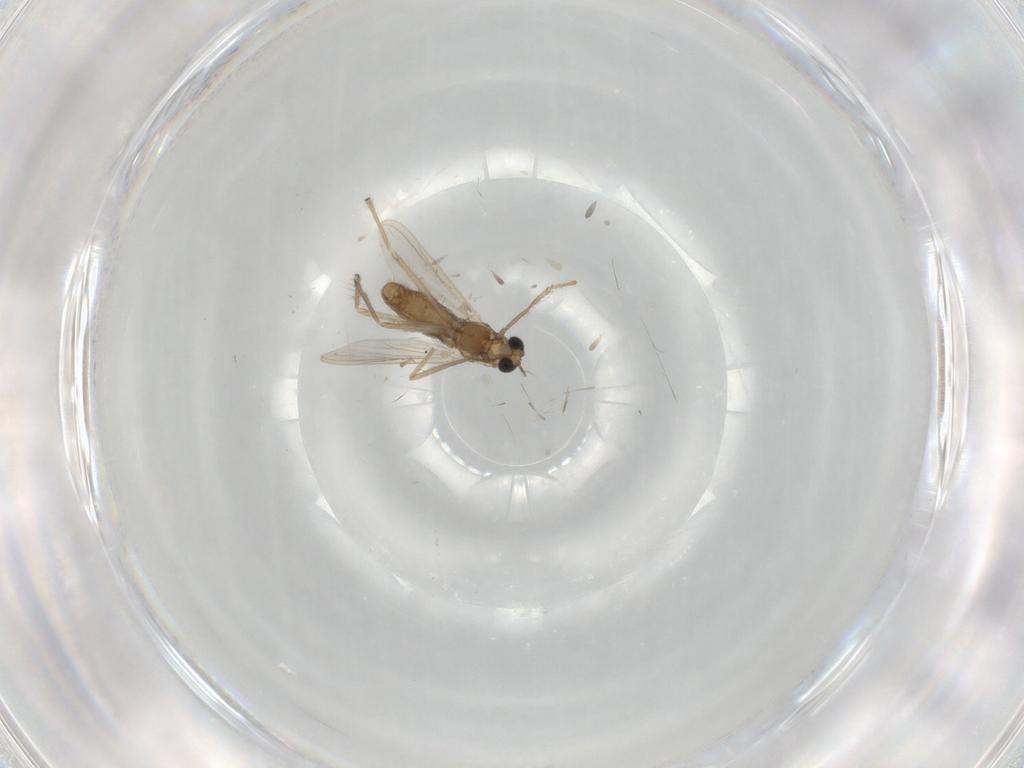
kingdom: Animalia
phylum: Arthropoda
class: Insecta
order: Diptera
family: Chironomidae
